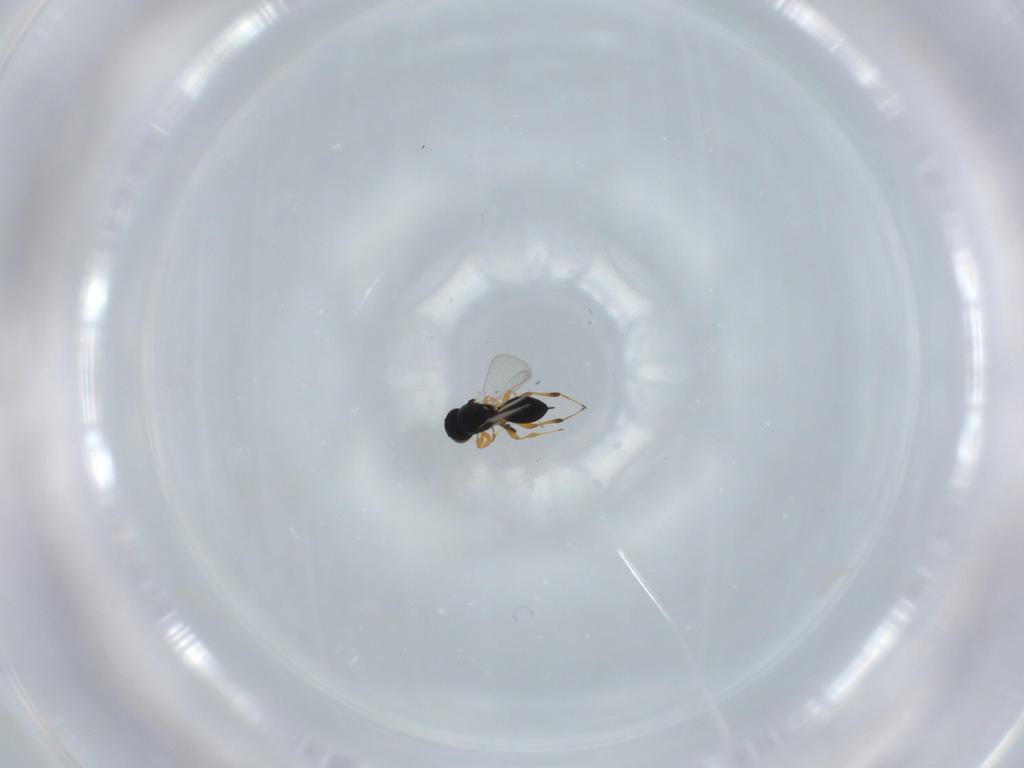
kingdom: Animalia
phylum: Arthropoda
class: Insecta
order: Hymenoptera
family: Platygastridae
